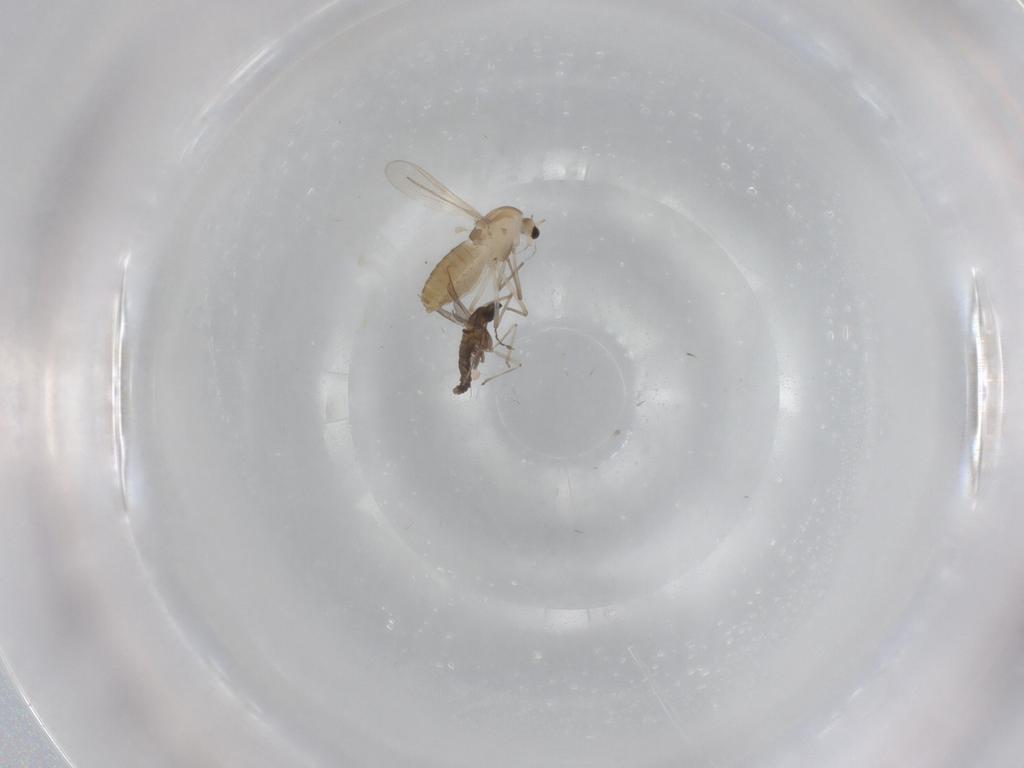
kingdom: Animalia
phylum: Arthropoda
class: Insecta
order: Diptera
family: Chironomidae
